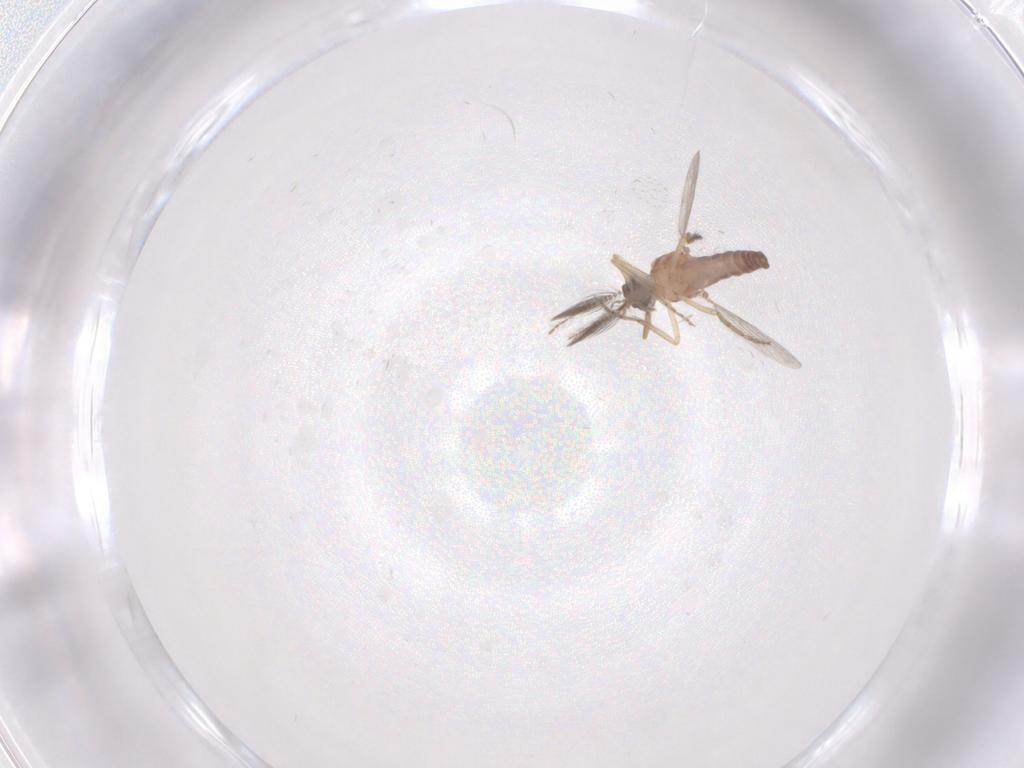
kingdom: Animalia
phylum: Arthropoda
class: Insecta
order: Diptera
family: Ceratopogonidae
